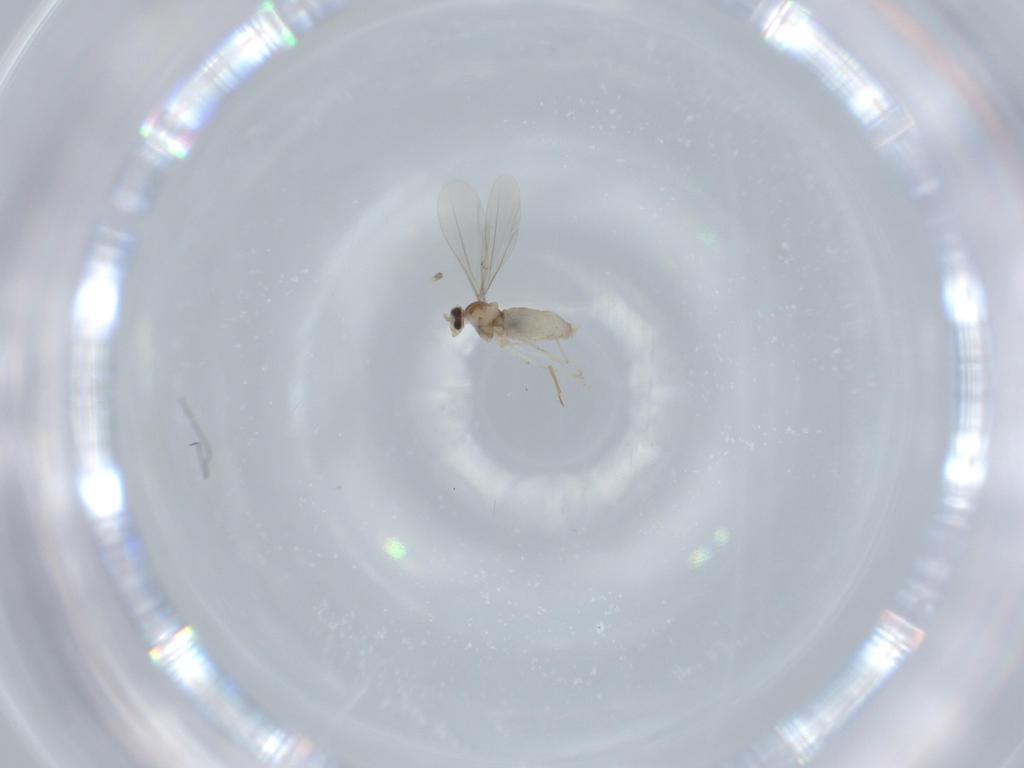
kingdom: Animalia
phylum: Arthropoda
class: Insecta
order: Diptera
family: Cecidomyiidae
